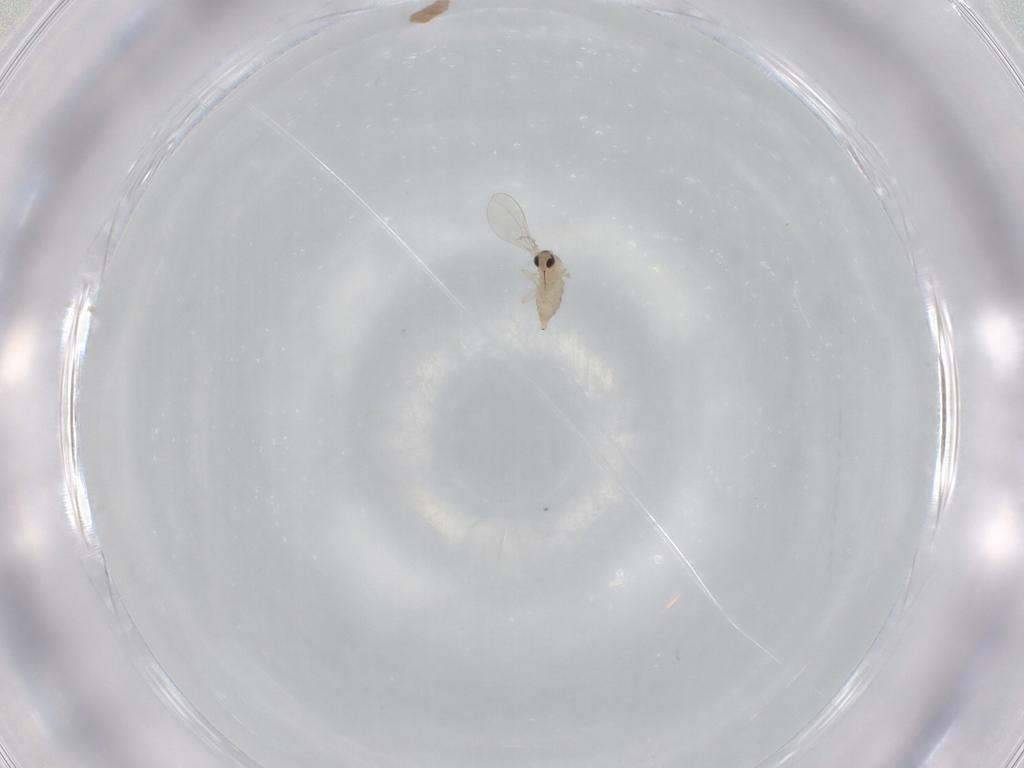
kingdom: Animalia
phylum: Arthropoda
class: Insecta
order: Diptera
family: Cecidomyiidae
